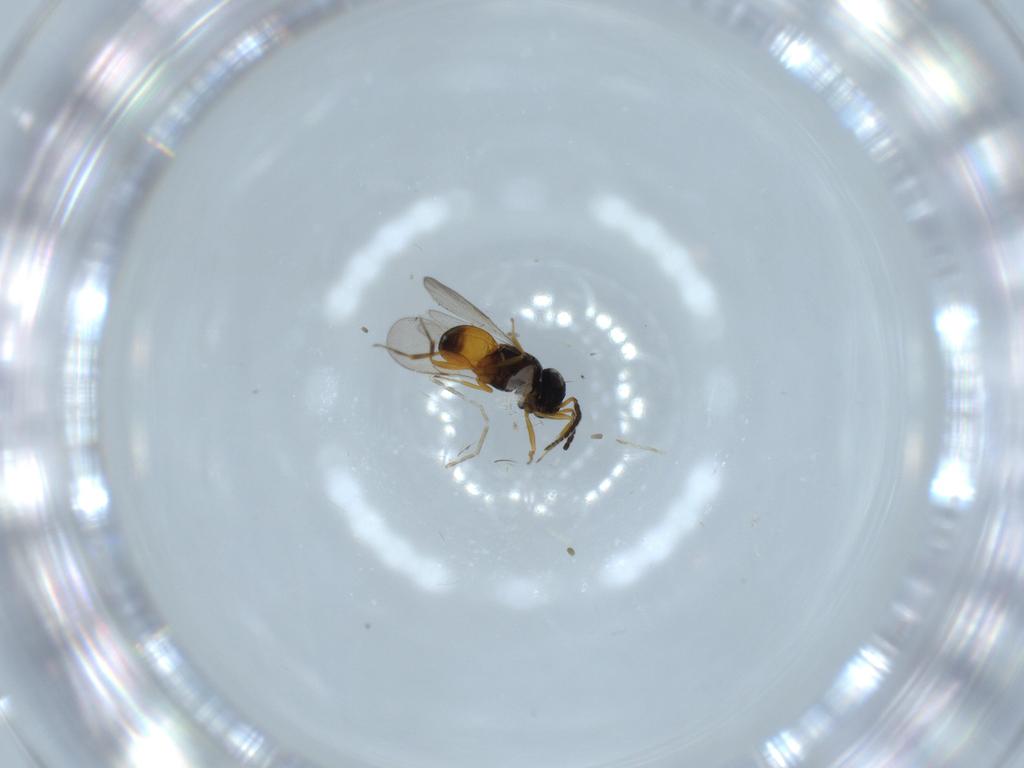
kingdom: Animalia
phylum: Arthropoda
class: Insecta
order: Hymenoptera
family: Scelionidae
